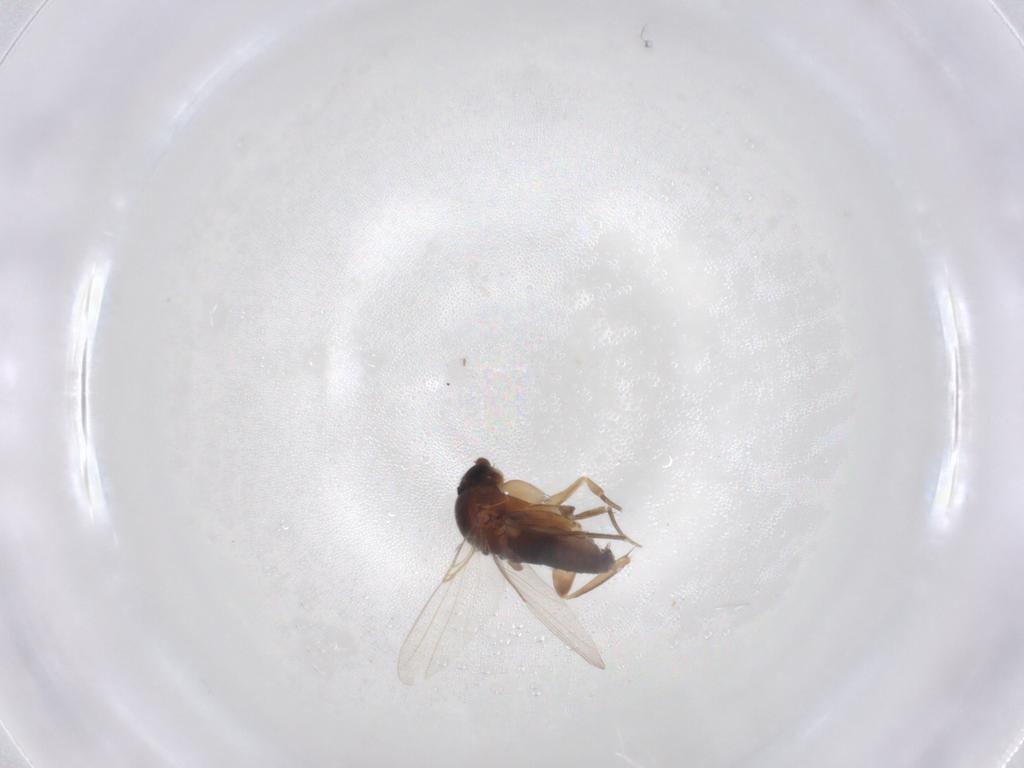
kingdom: Animalia
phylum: Arthropoda
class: Insecta
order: Diptera
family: Phoridae
